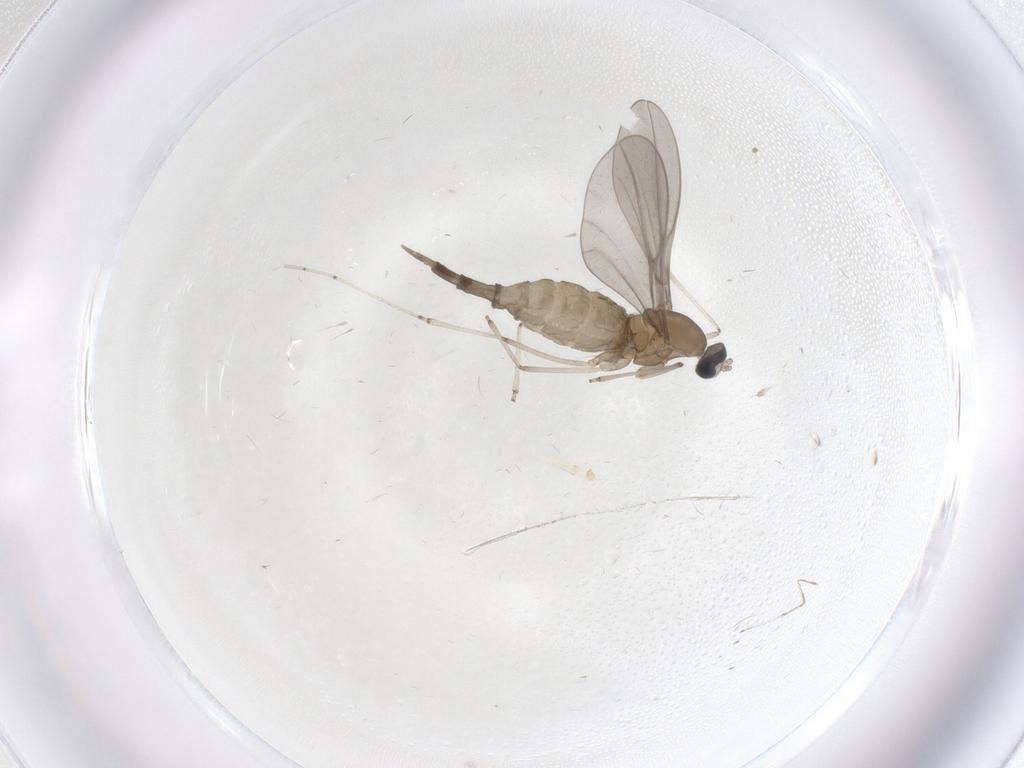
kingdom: Animalia
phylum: Arthropoda
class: Insecta
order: Diptera
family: Cecidomyiidae
